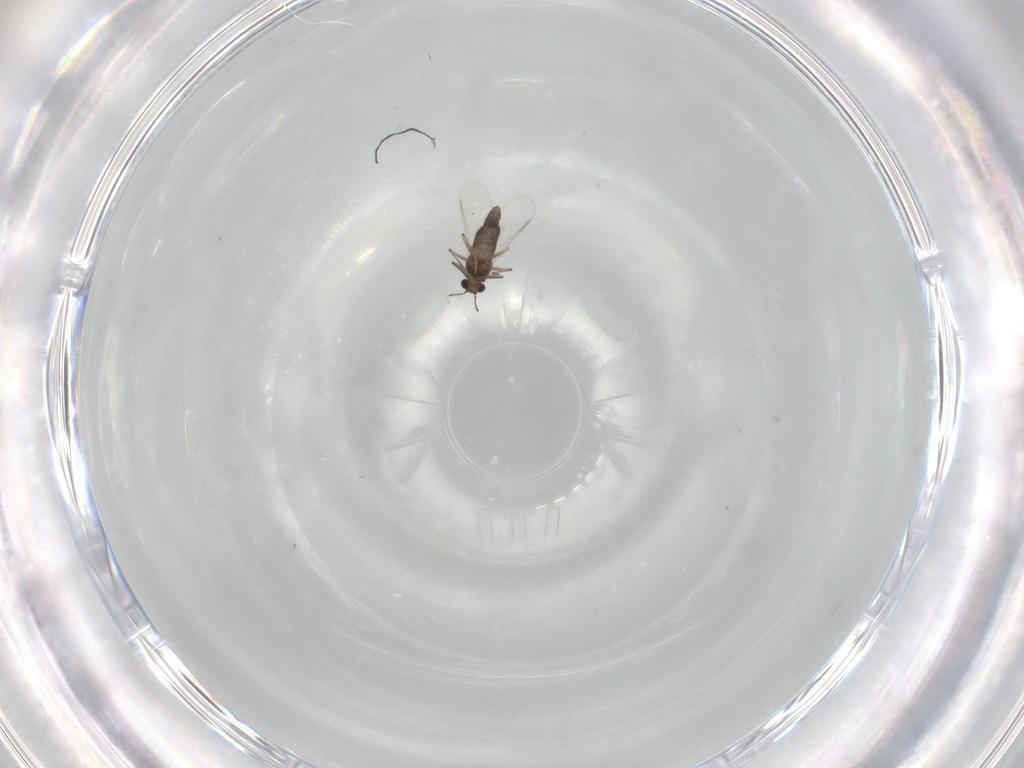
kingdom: Animalia
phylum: Arthropoda
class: Insecta
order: Diptera
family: Chironomidae
